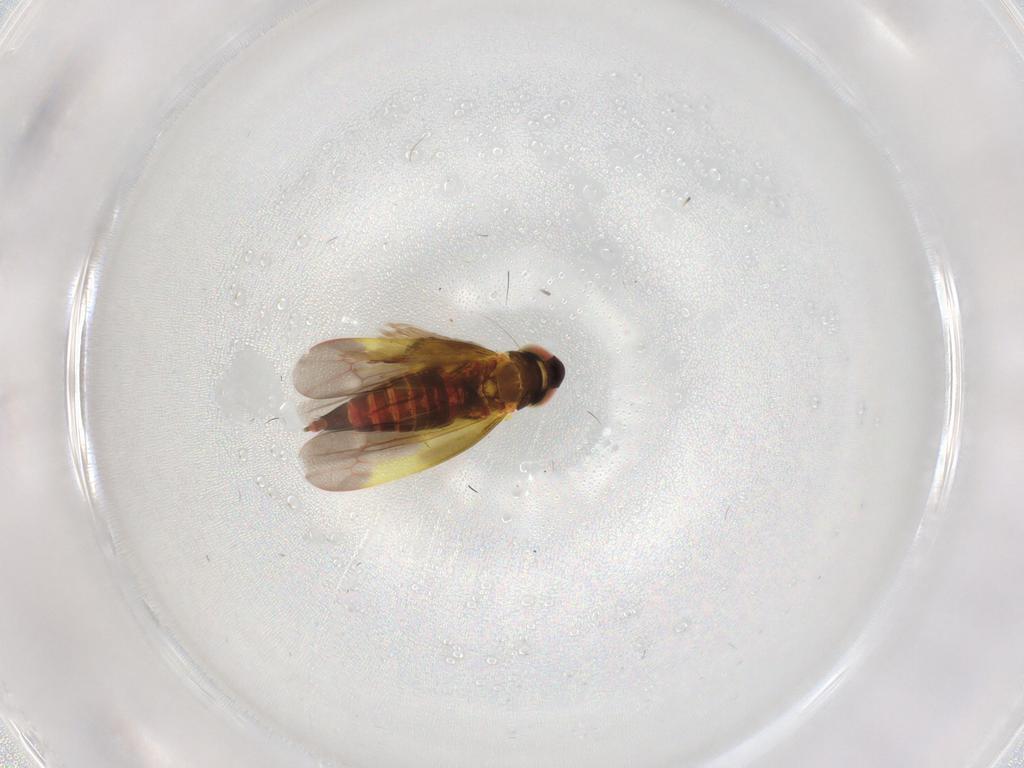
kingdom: Animalia
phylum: Arthropoda
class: Insecta
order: Hemiptera
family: Cicadellidae
